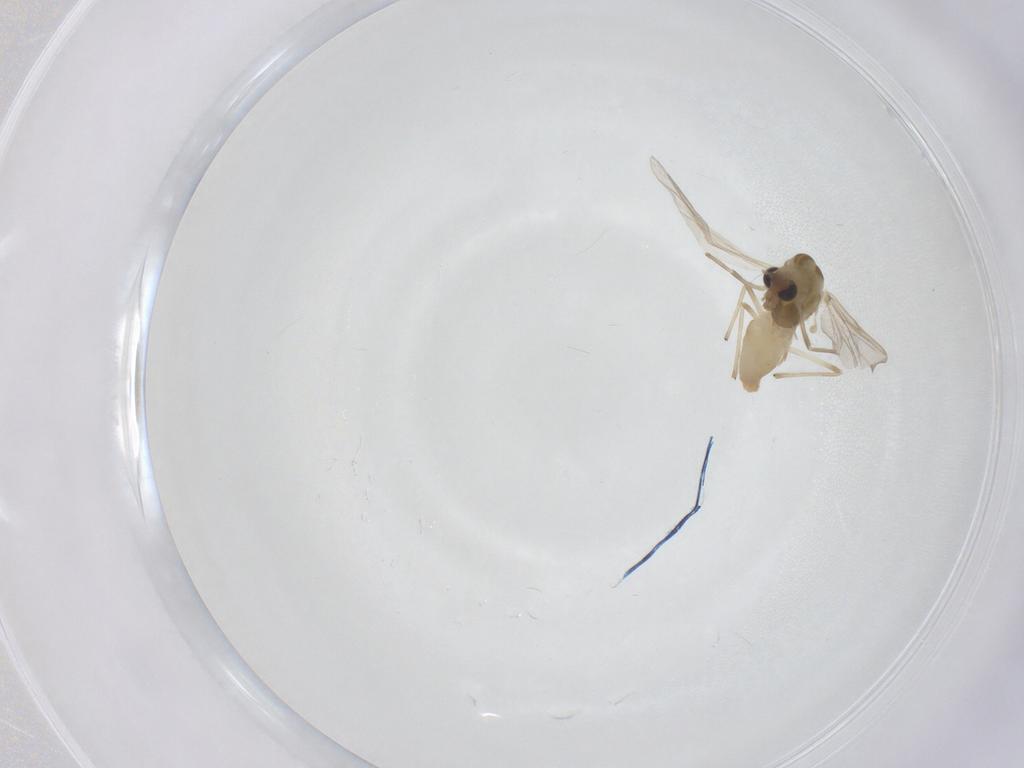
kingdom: Animalia
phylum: Arthropoda
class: Insecta
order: Diptera
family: Chironomidae
